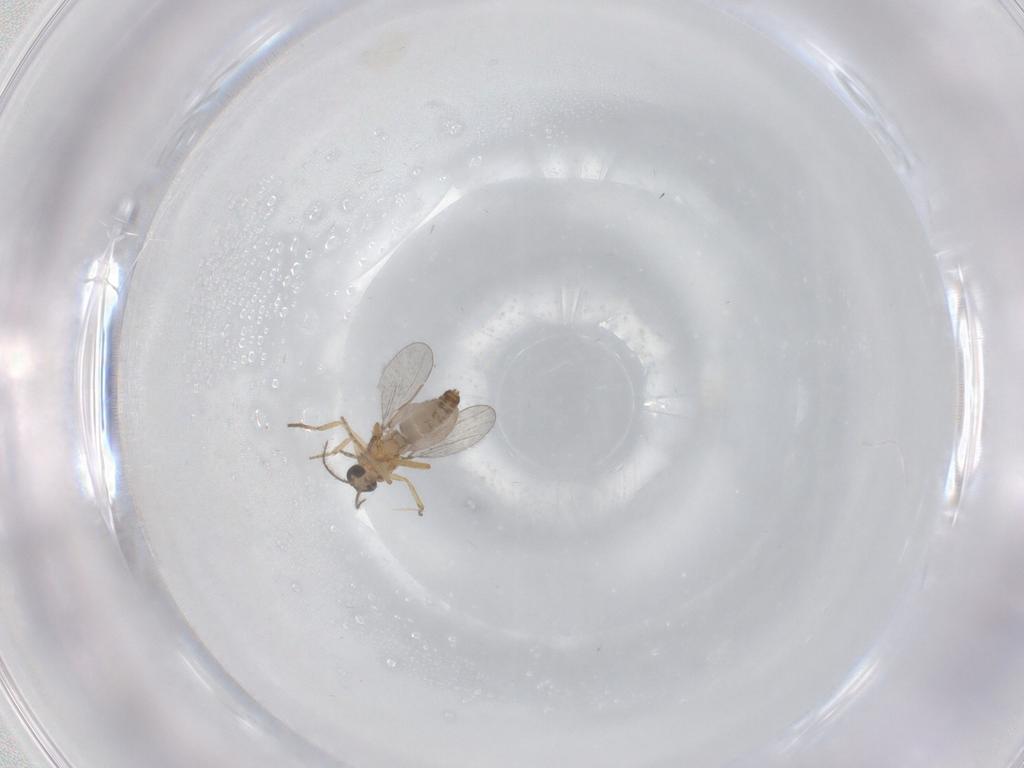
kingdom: Animalia
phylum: Arthropoda
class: Insecta
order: Diptera
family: Ceratopogonidae
